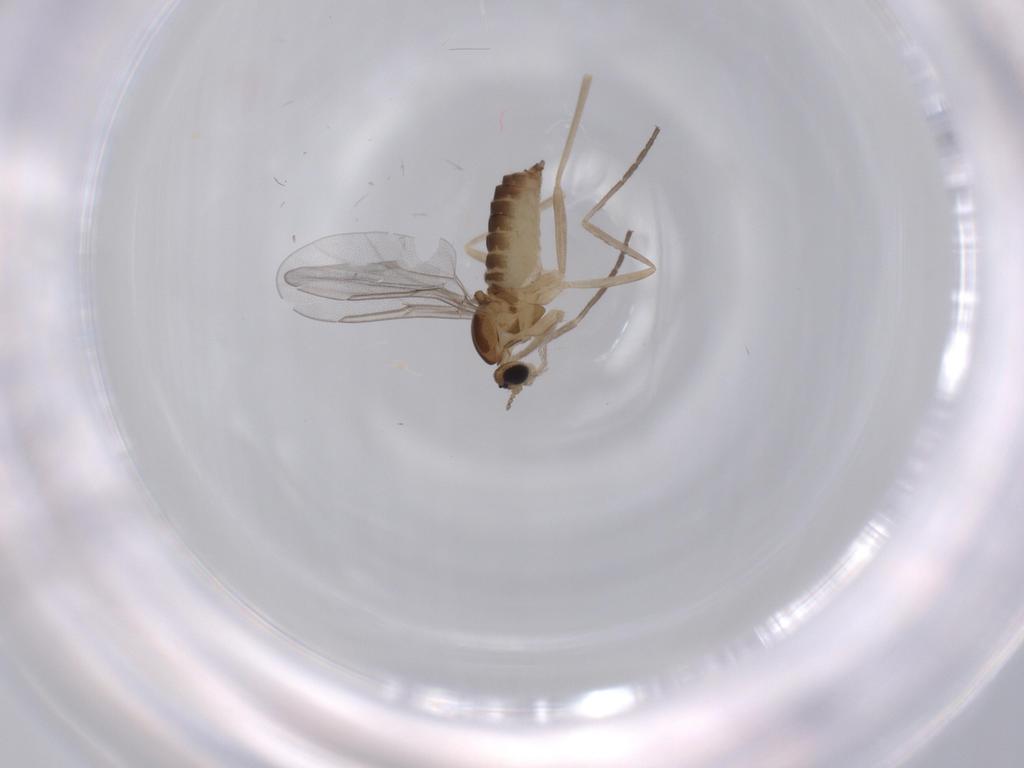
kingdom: Animalia
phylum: Arthropoda
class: Insecta
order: Diptera
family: Cecidomyiidae
